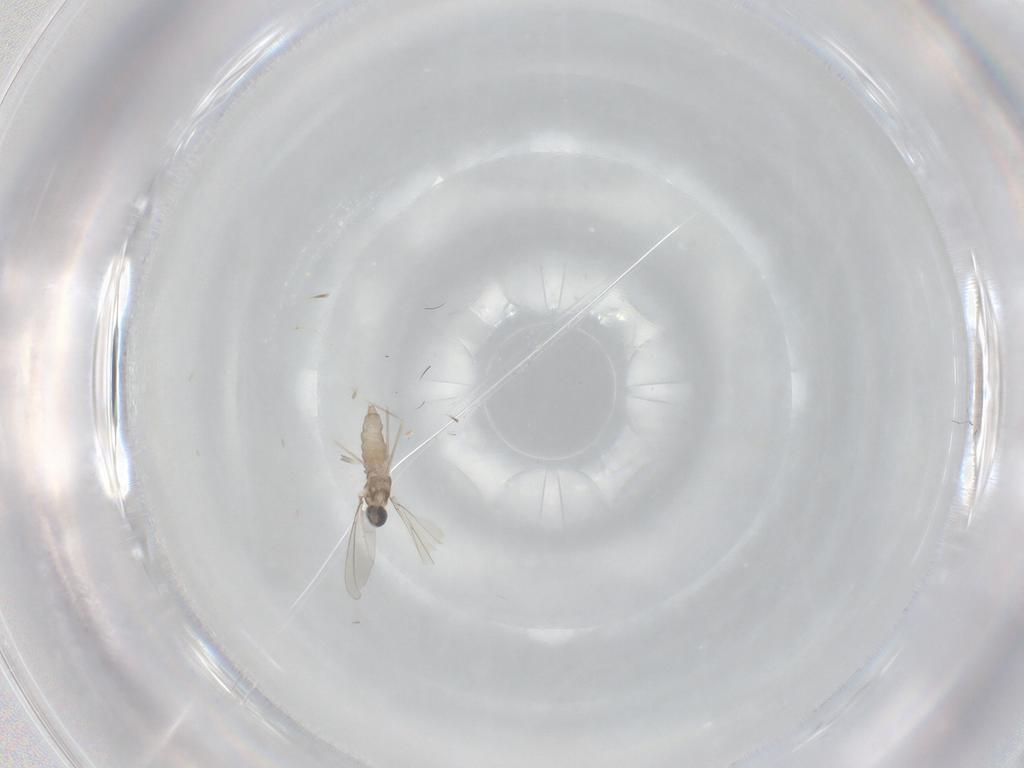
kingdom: Animalia
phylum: Arthropoda
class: Insecta
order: Diptera
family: Cecidomyiidae
